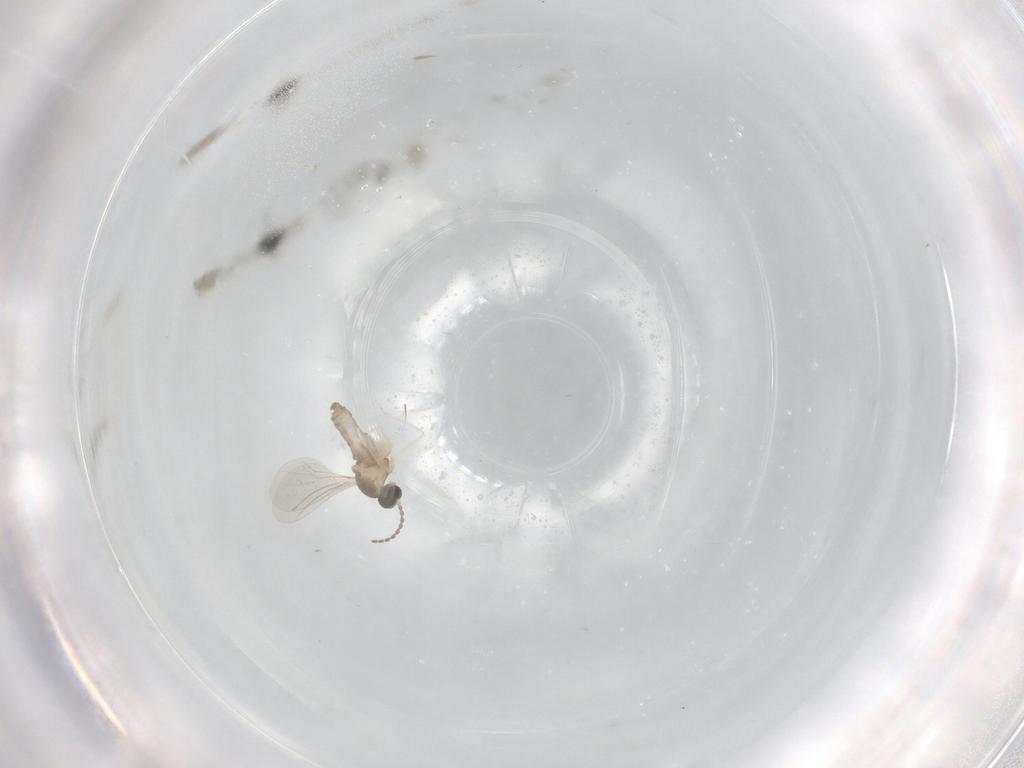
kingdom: Animalia
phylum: Arthropoda
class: Insecta
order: Diptera
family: Cecidomyiidae
